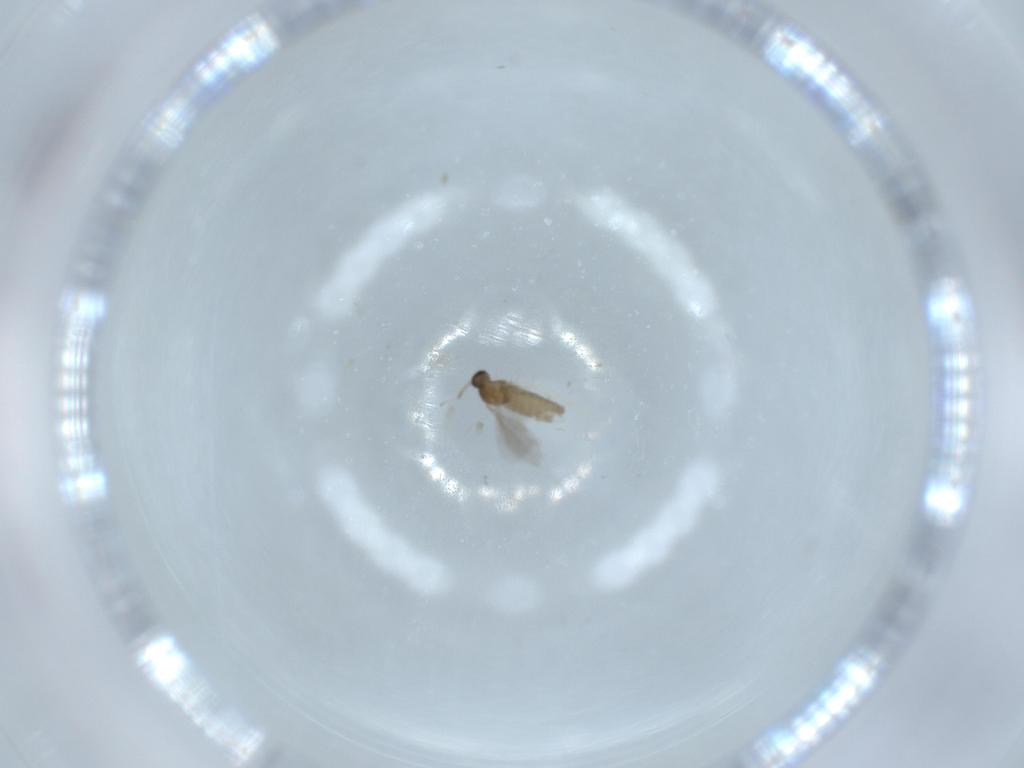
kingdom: Animalia
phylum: Arthropoda
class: Insecta
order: Diptera
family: Cecidomyiidae
